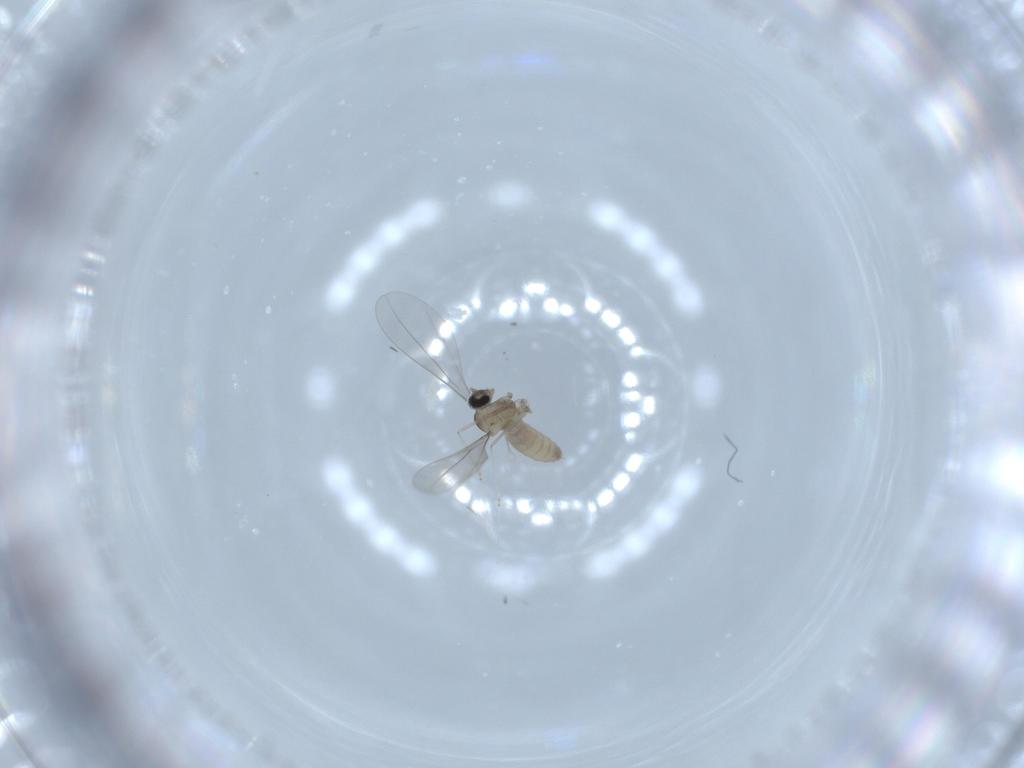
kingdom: Animalia
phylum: Arthropoda
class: Insecta
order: Diptera
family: Cecidomyiidae
